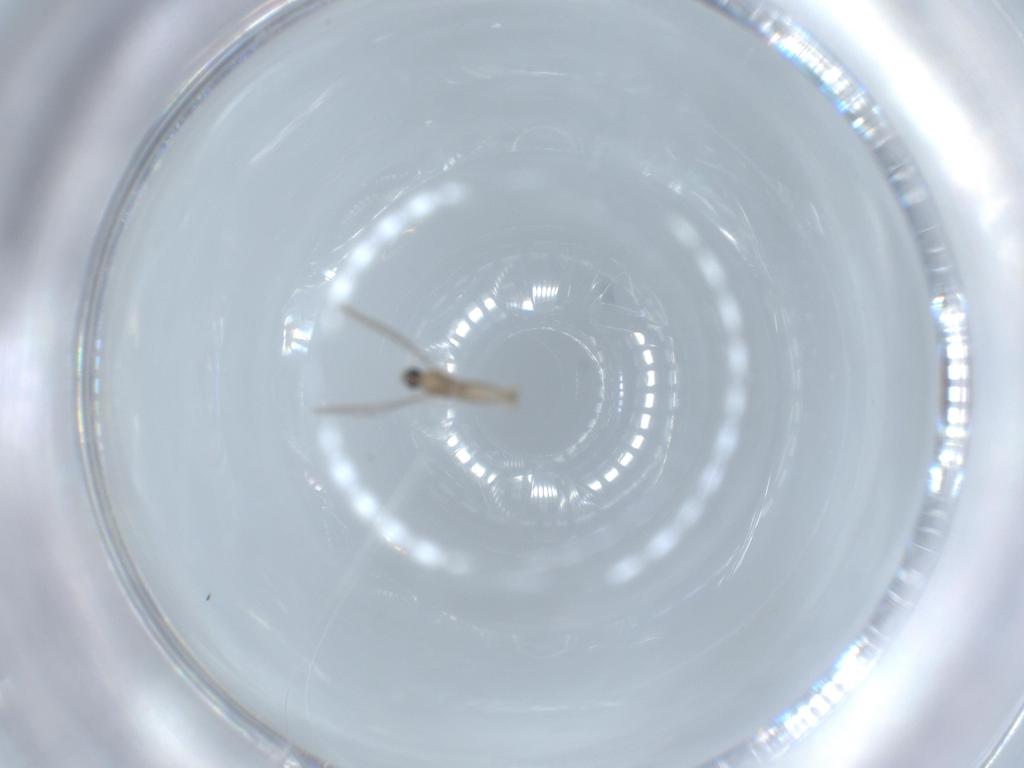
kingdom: Animalia
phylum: Arthropoda
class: Insecta
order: Diptera
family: Cecidomyiidae
